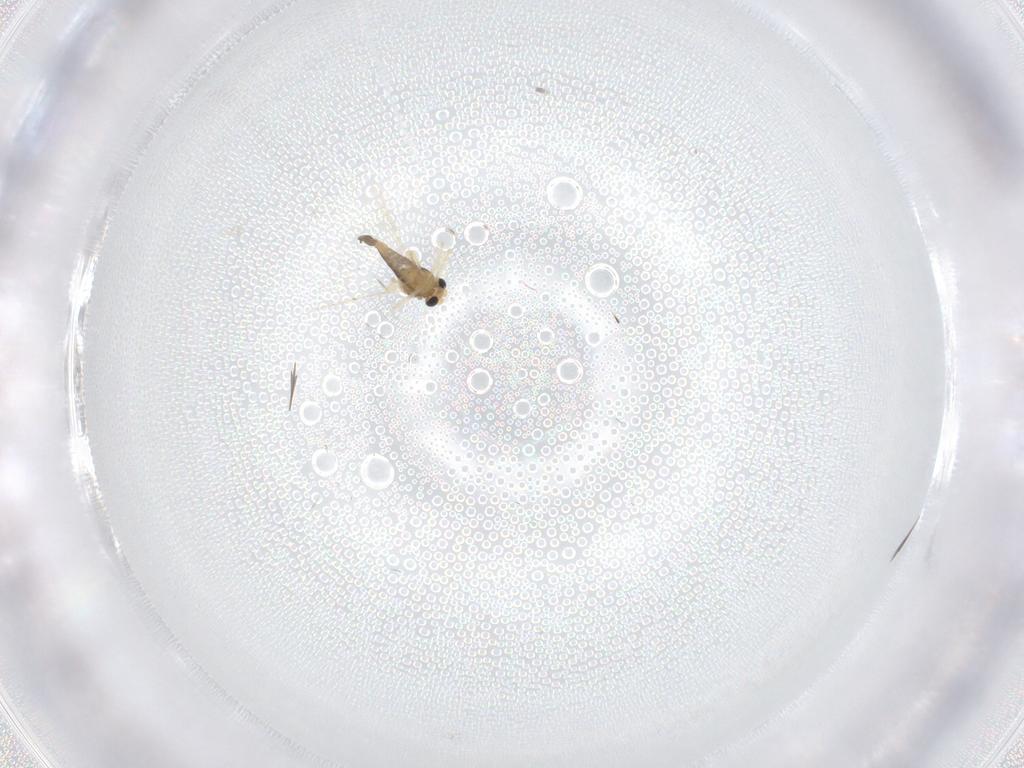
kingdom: Animalia
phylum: Arthropoda
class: Insecta
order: Diptera
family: Chironomidae
